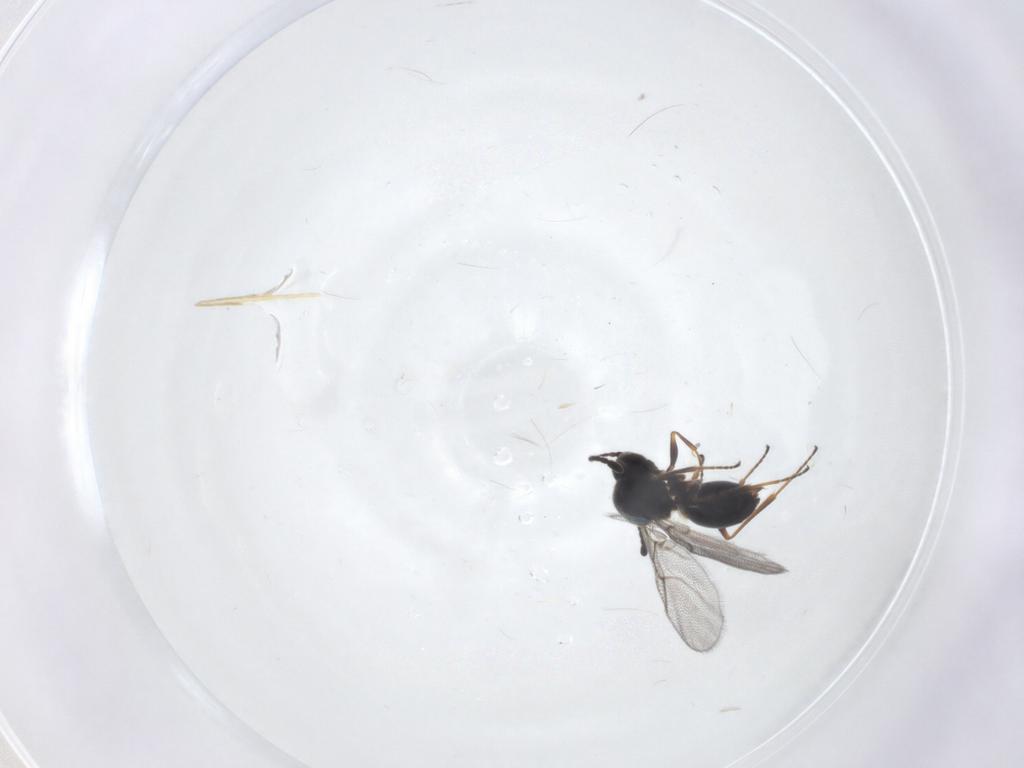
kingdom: Animalia
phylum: Arthropoda
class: Insecta
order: Hymenoptera
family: Figitidae
